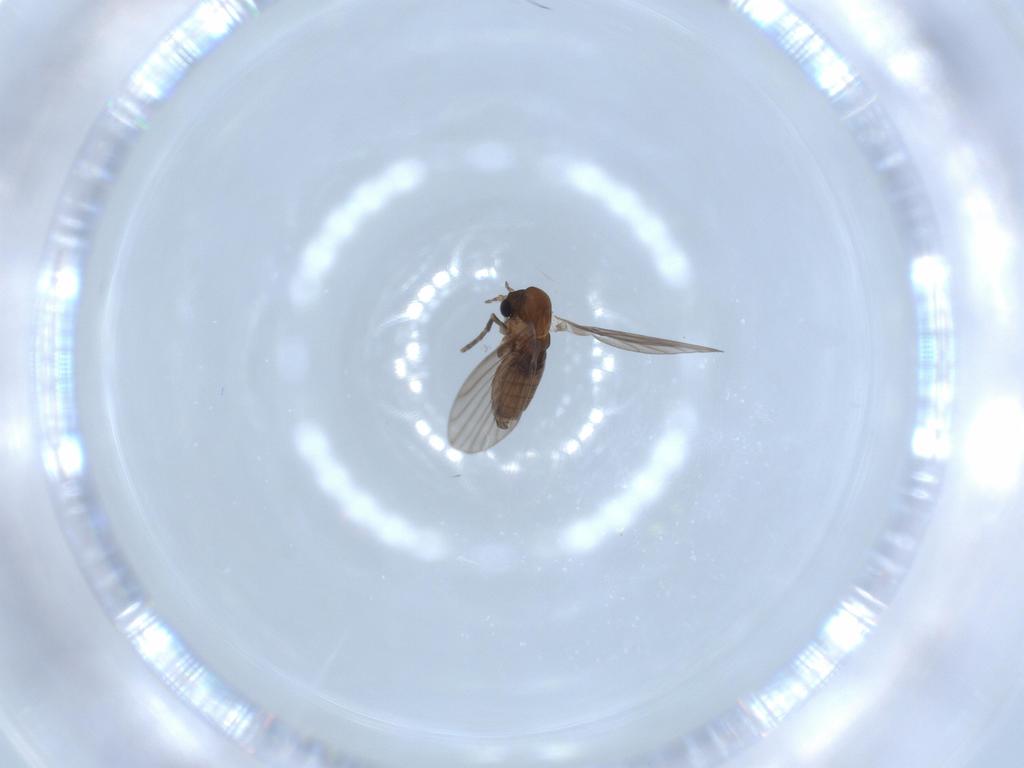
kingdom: Animalia
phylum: Arthropoda
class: Insecta
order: Diptera
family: Psychodidae
